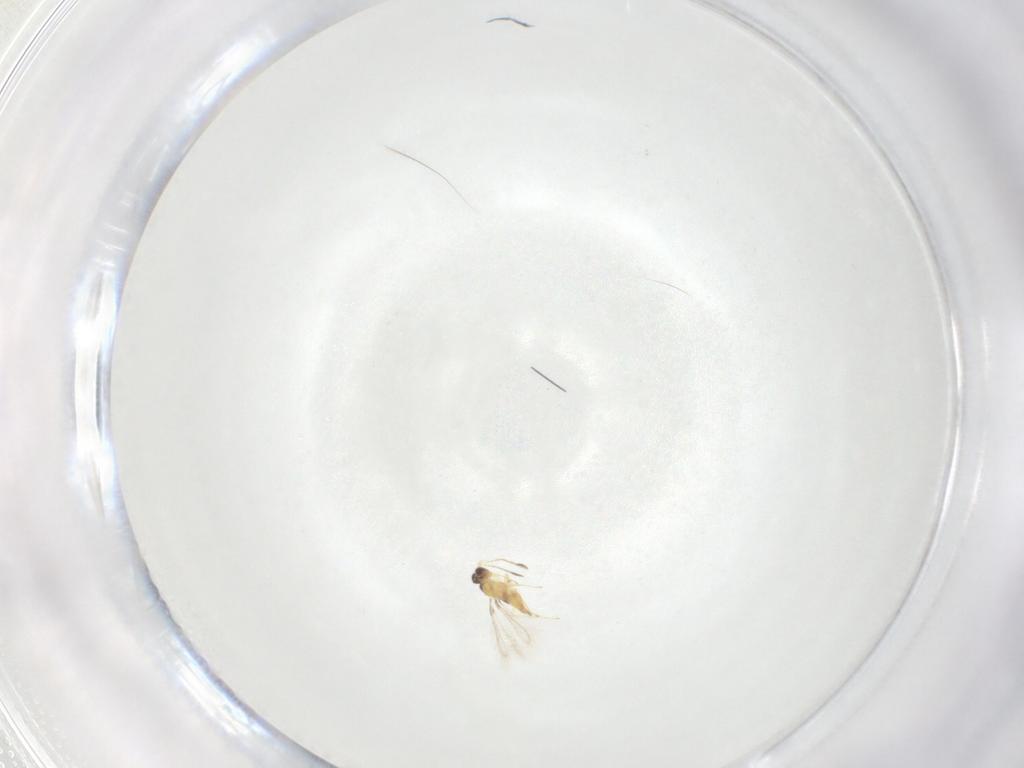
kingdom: Animalia
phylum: Arthropoda
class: Insecta
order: Hymenoptera
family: Mymaridae
